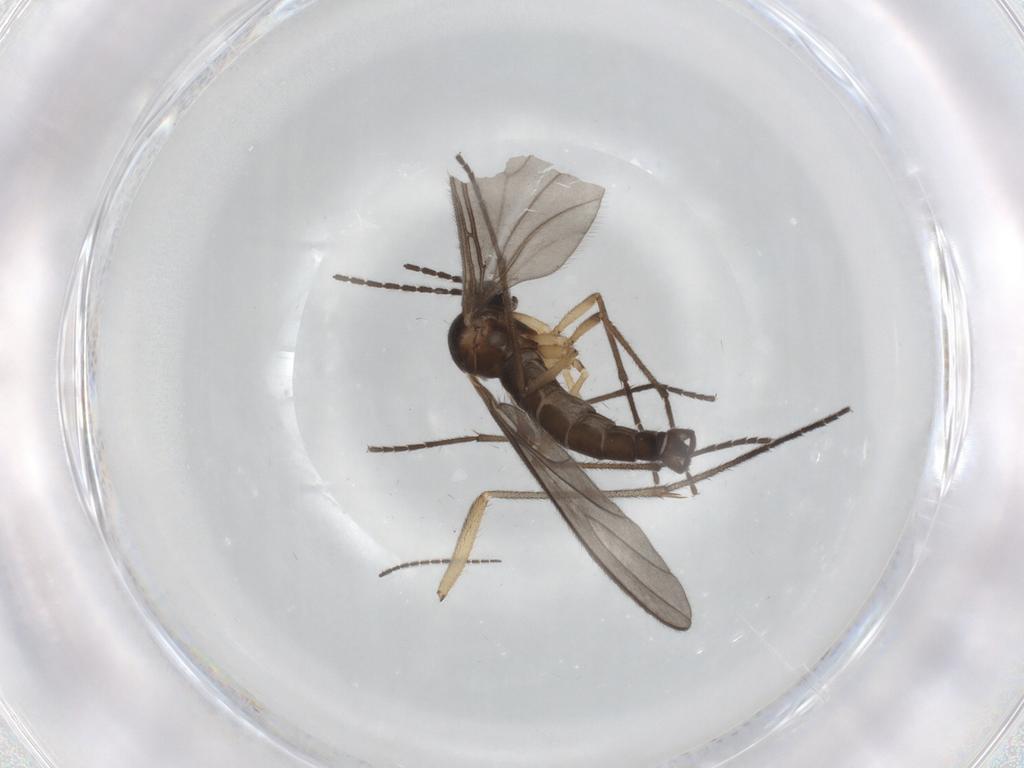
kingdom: Animalia
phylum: Arthropoda
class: Insecta
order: Diptera
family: Sciaridae
